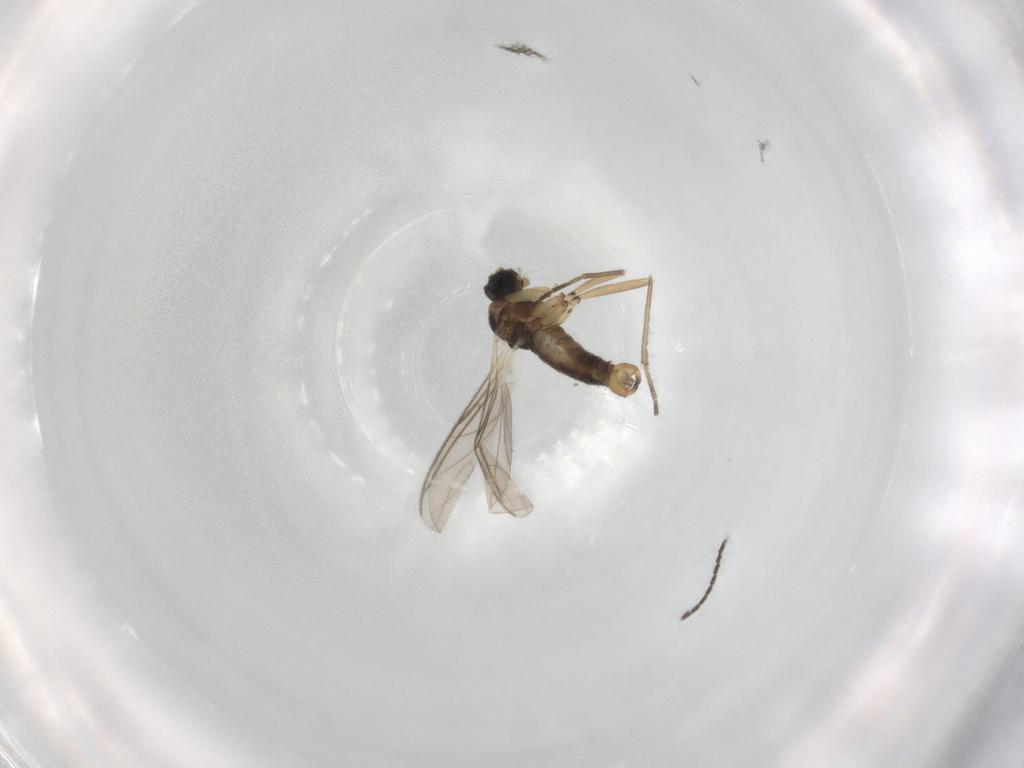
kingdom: Animalia
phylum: Arthropoda
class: Insecta
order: Diptera
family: Sciaridae
